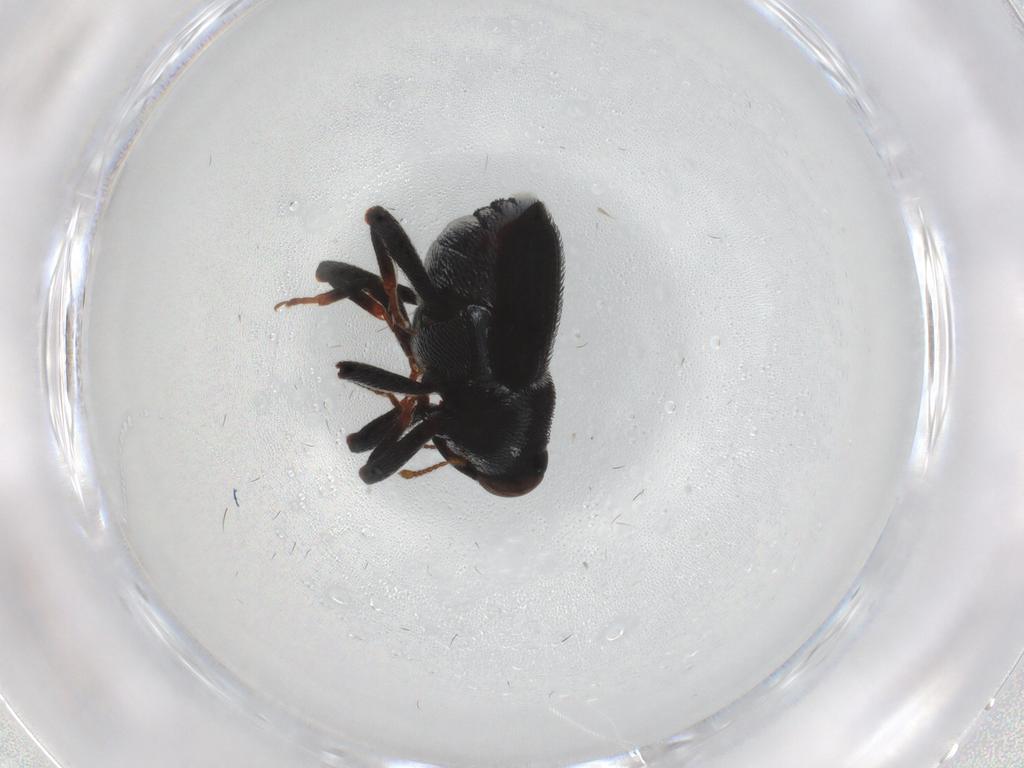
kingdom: Animalia
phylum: Arthropoda
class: Insecta
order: Coleoptera
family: Curculionidae
